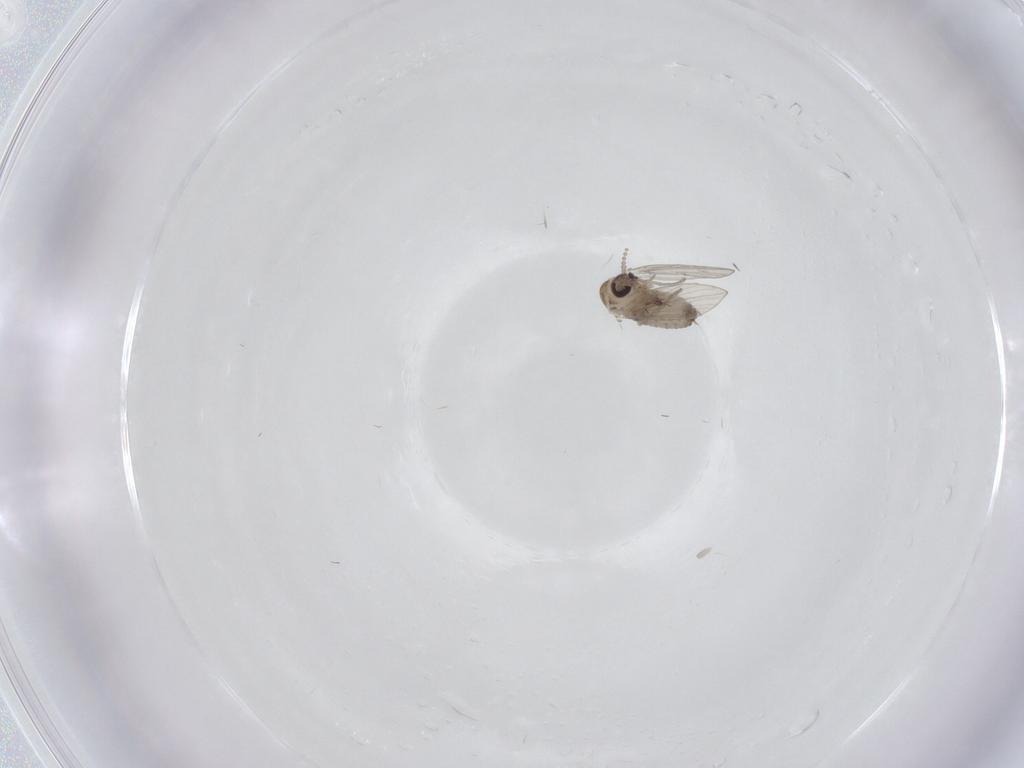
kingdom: Animalia
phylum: Arthropoda
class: Insecta
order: Diptera
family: Psychodidae
